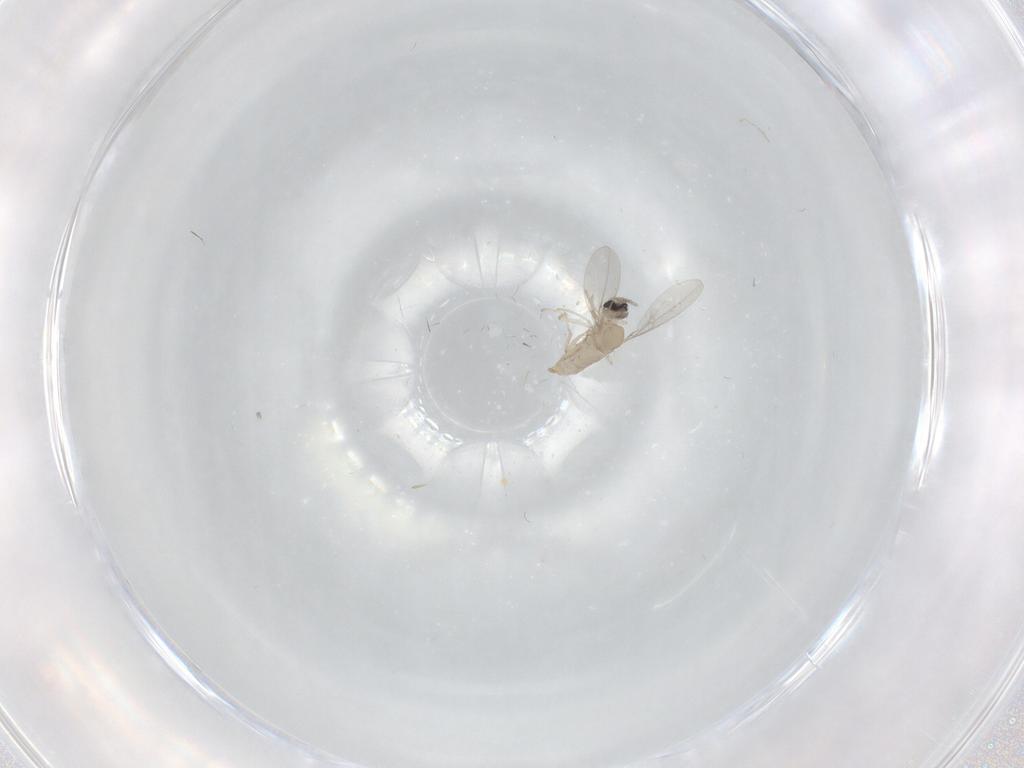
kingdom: Animalia
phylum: Arthropoda
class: Insecta
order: Diptera
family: Cecidomyiidae
